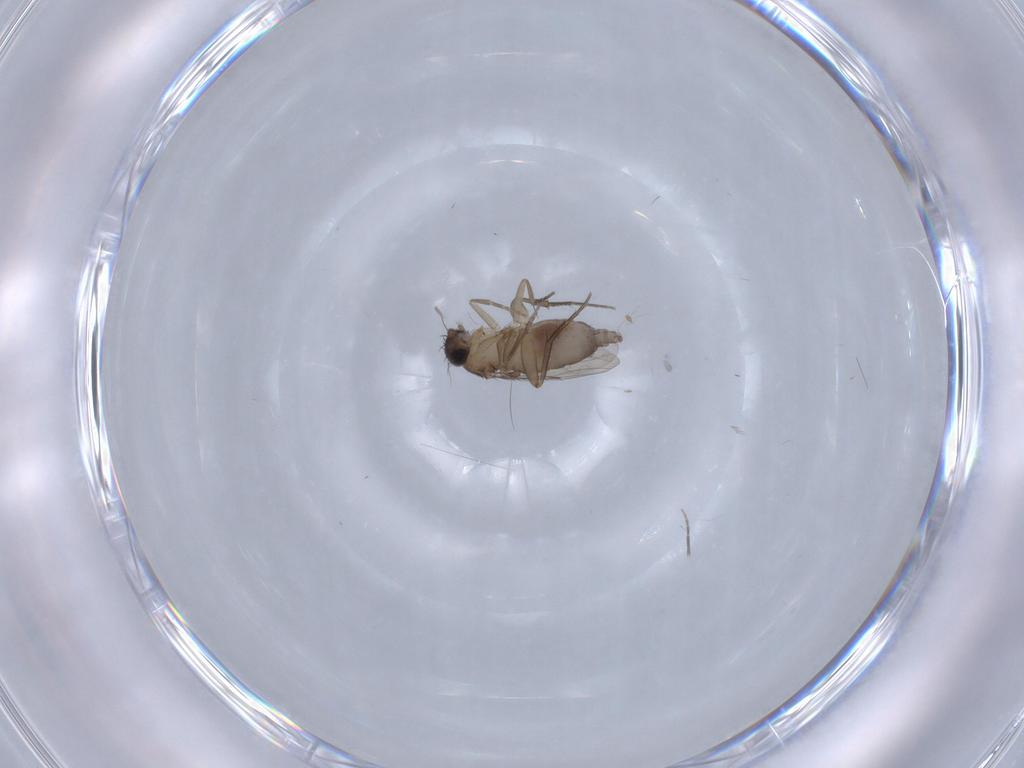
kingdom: Animalia
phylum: Arthropoda
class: Insecta
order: Diptera
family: Phoridae
